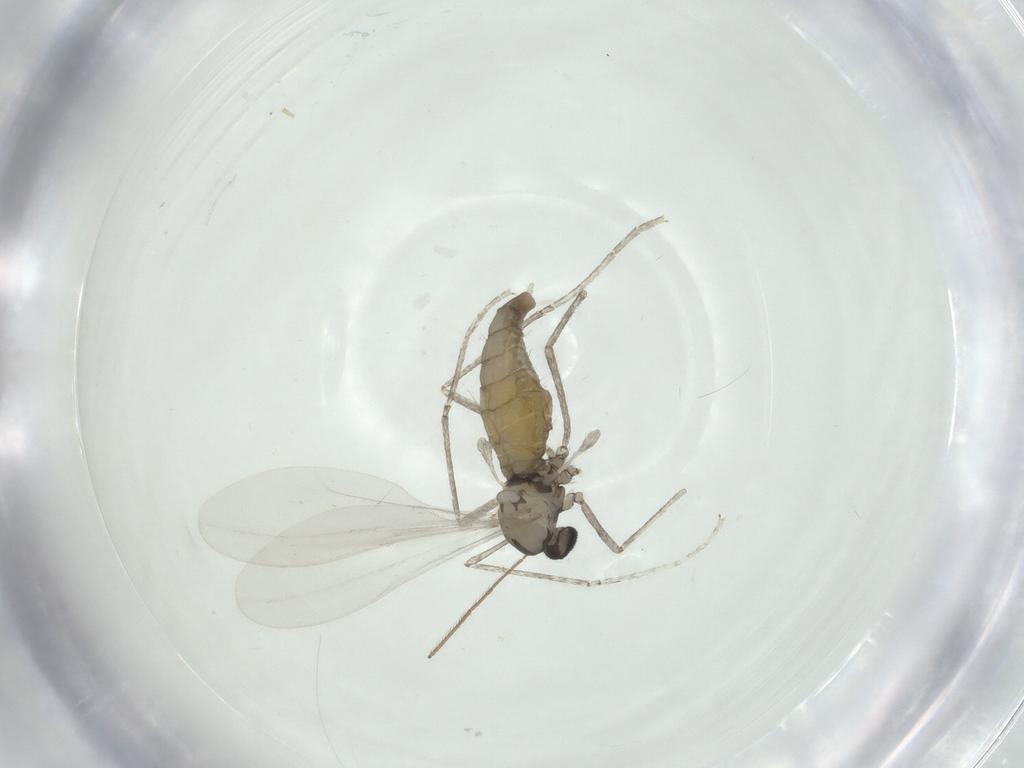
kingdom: Animalia
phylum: Arthropoda
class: Insecta
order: Diptera
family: Cecidomyiidae
